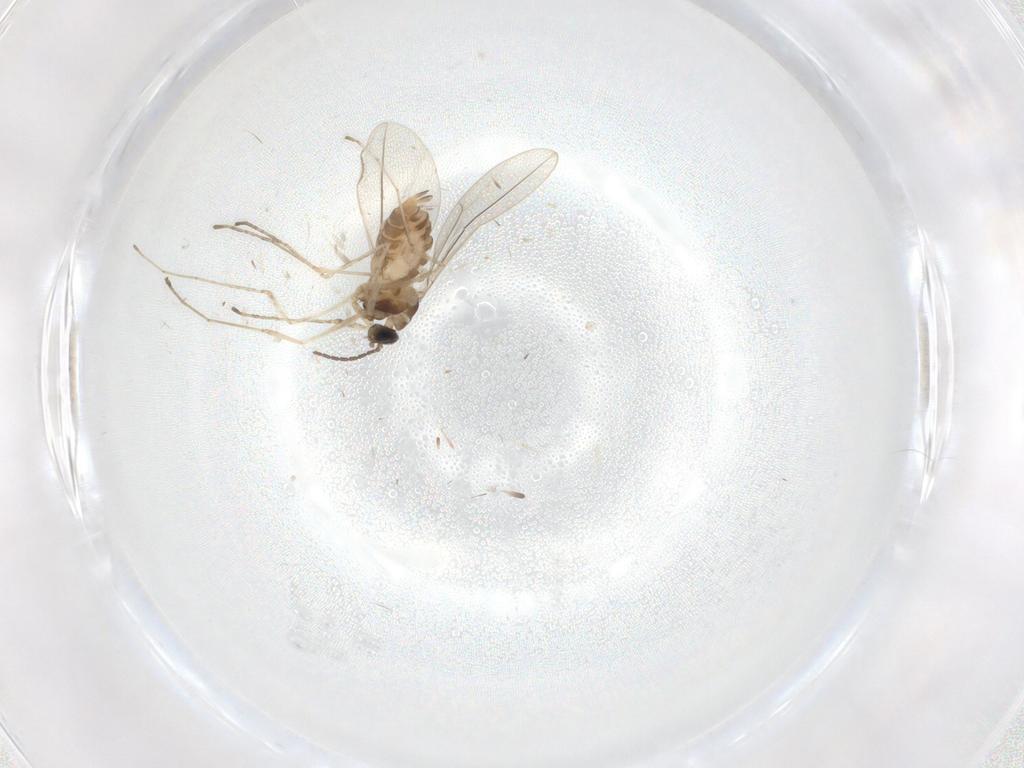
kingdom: Animalia
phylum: Arthropoda
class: Insecta
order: Diptera
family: Cecidomyiidae
